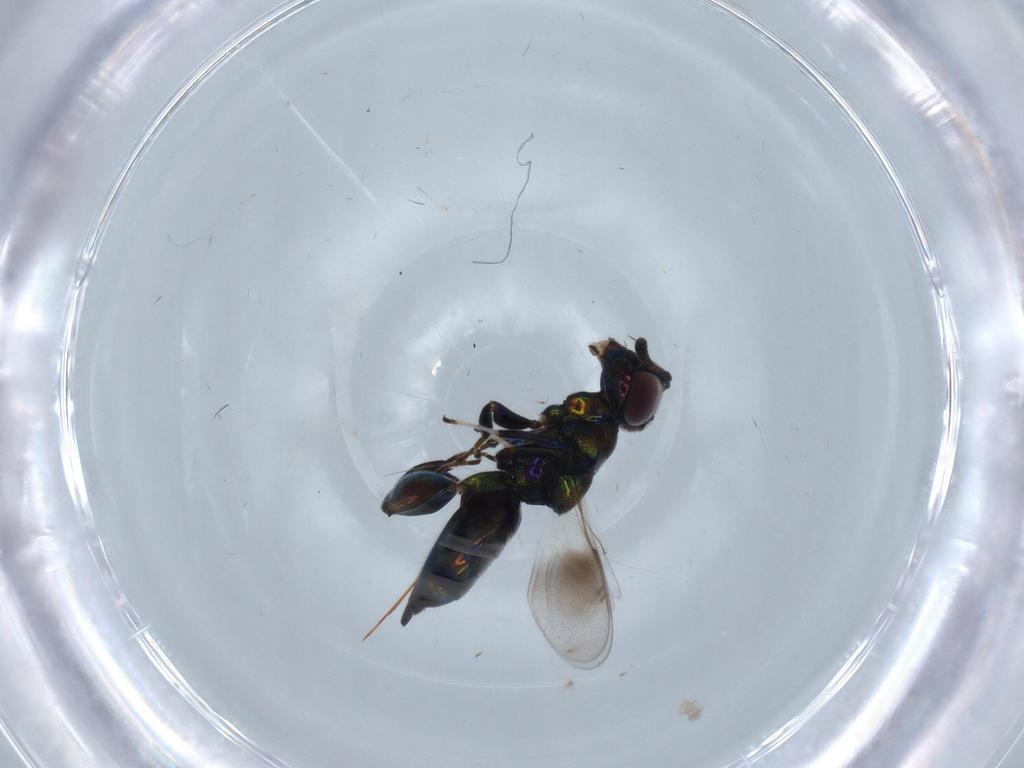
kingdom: Animalia
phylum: Arthropoda
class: Insecta
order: Hymenoptera
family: Pteromalidae
